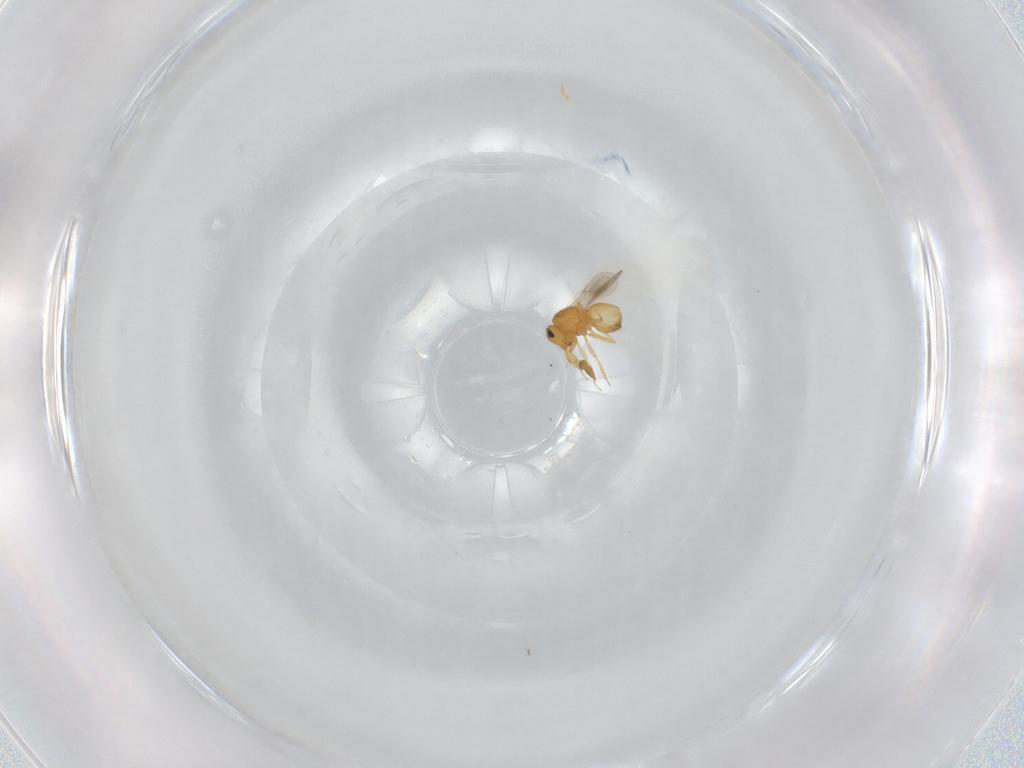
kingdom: Animalia
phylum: Arthropoda
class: Insecta
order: Hymenoptera
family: Scelionidae
